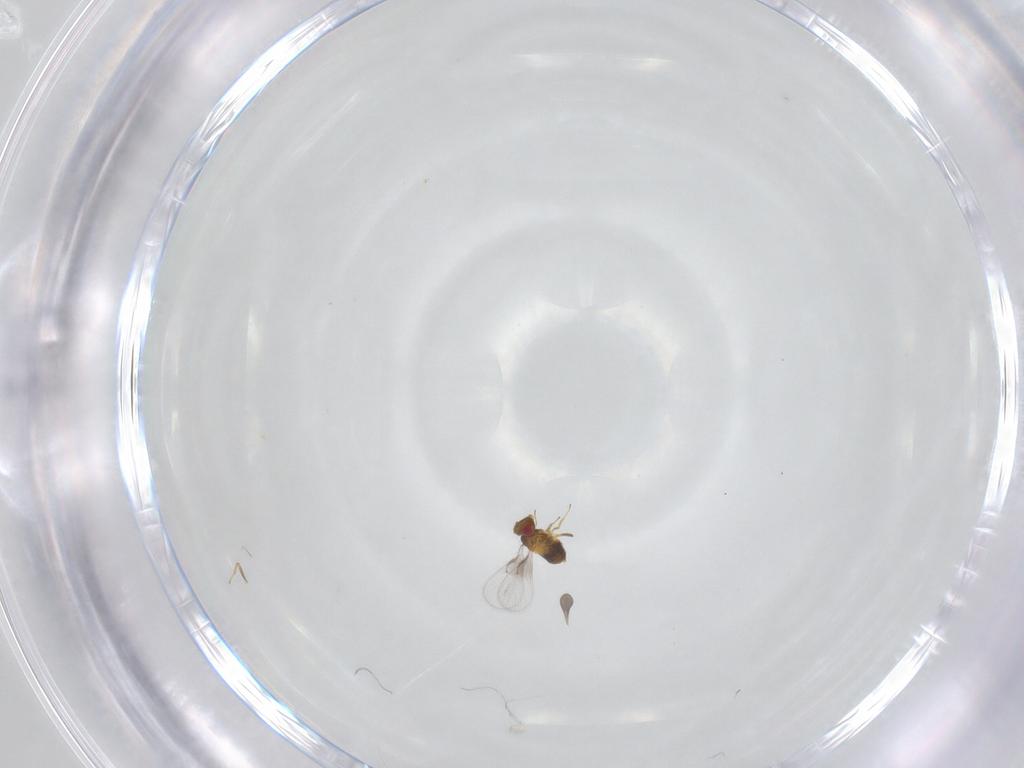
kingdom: Animalia
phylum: Arthropoda
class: Insecta
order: Hymenoptera
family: Trichogrammatidae
